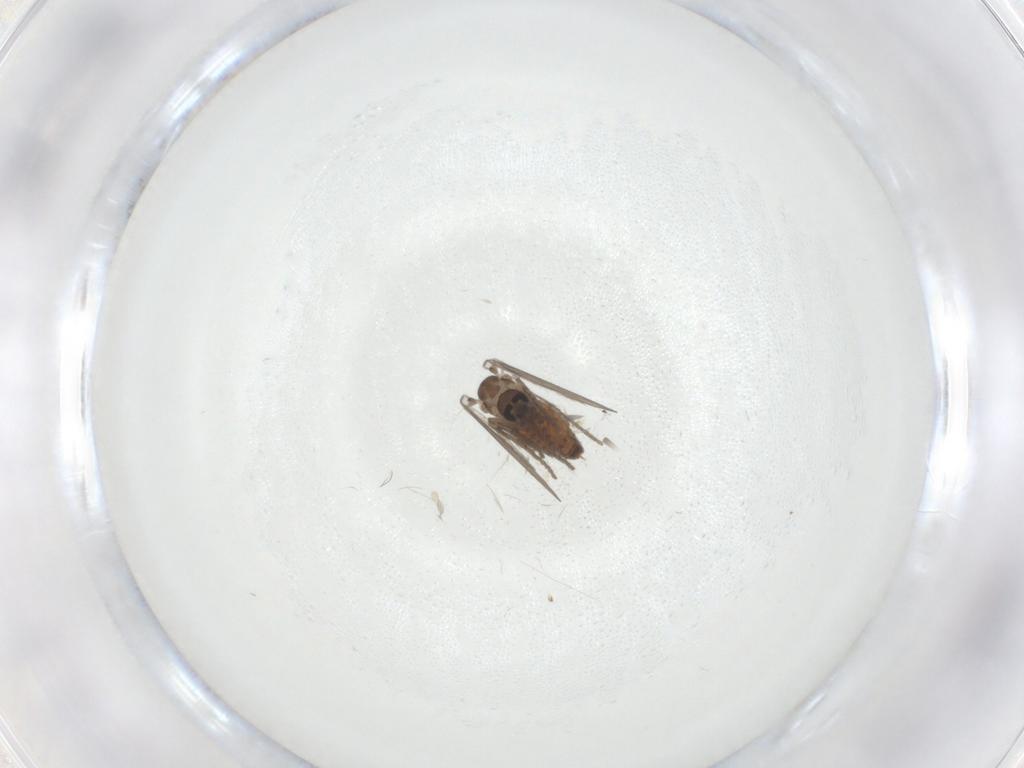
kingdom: Animalia
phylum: Arthropoda
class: Insecta
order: Diptera
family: Psychodidae
